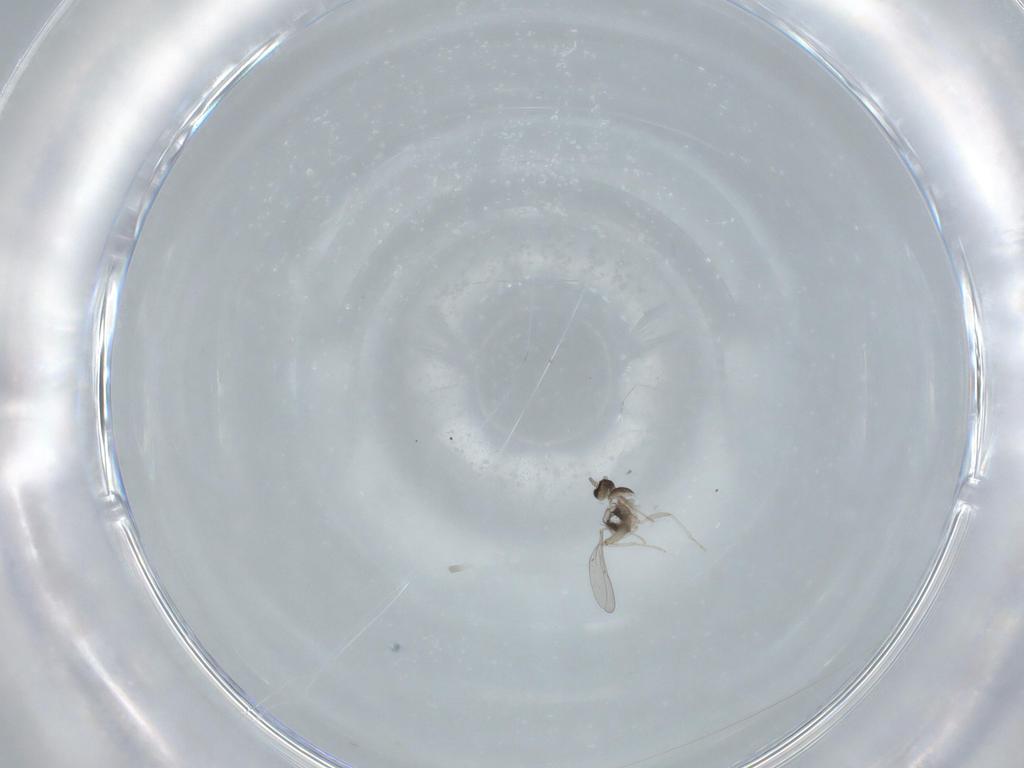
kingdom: Animalia
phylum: Arthropoda
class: Insecta
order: Diptera
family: Cecidomyiidae
